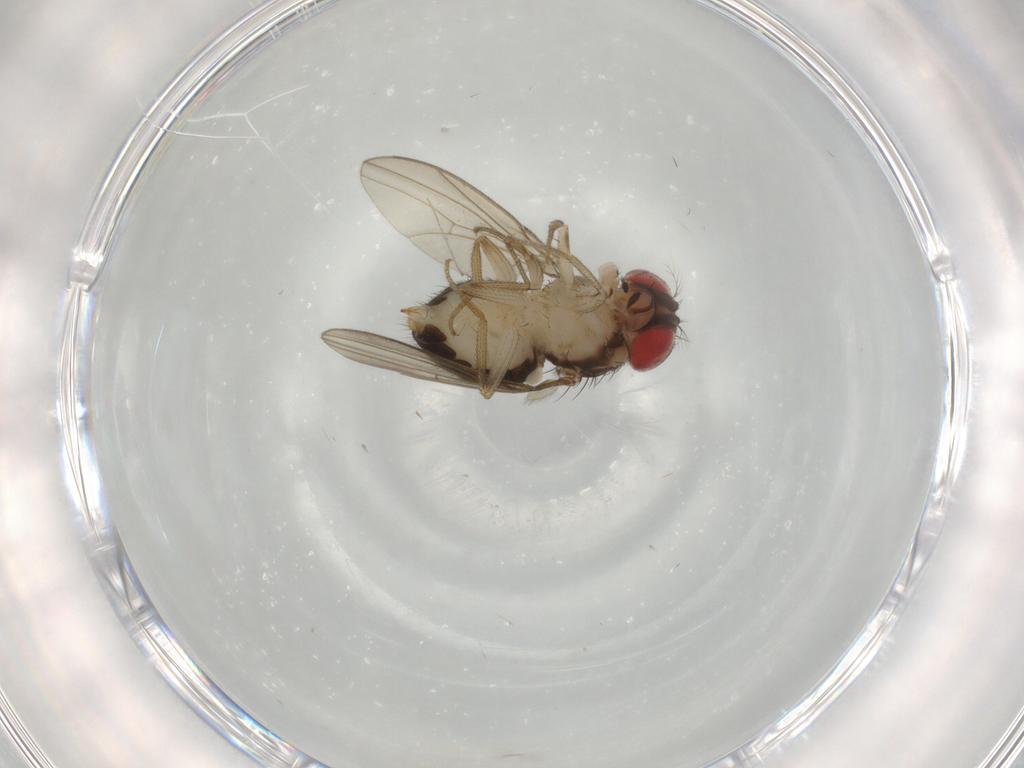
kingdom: Animalia
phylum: Arthropoda
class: Insecta
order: Diptera
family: Drosophilidae
